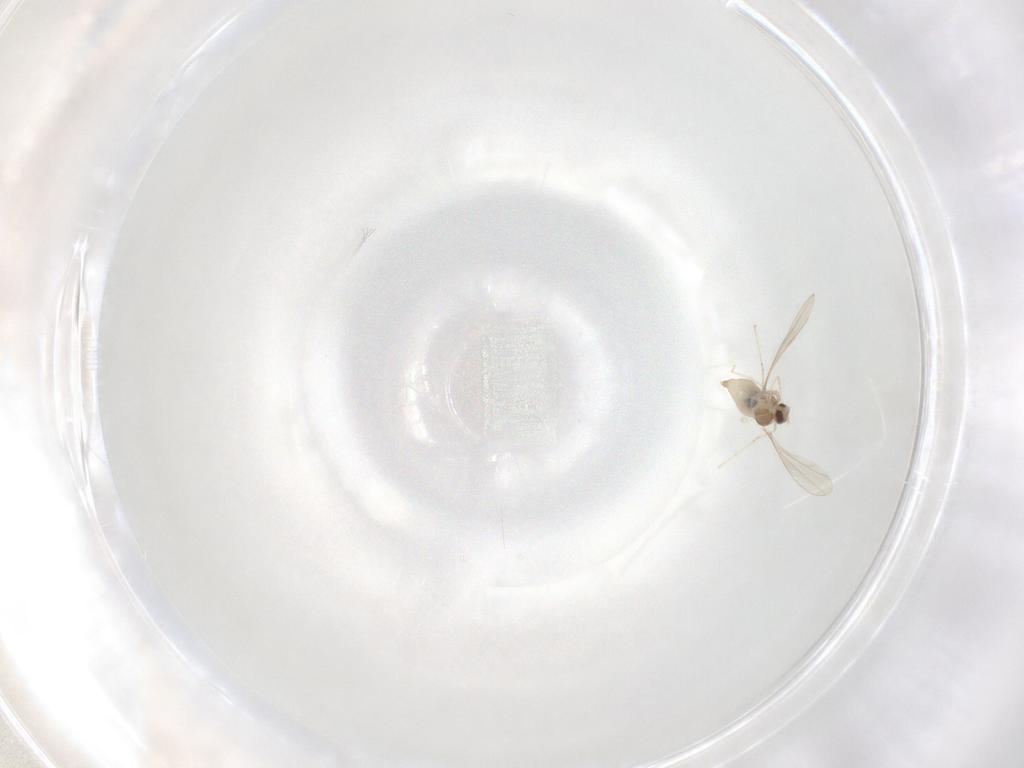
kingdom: Animalia
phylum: Arthropoda
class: Insecta
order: Diptera
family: Cecidomyiidae
